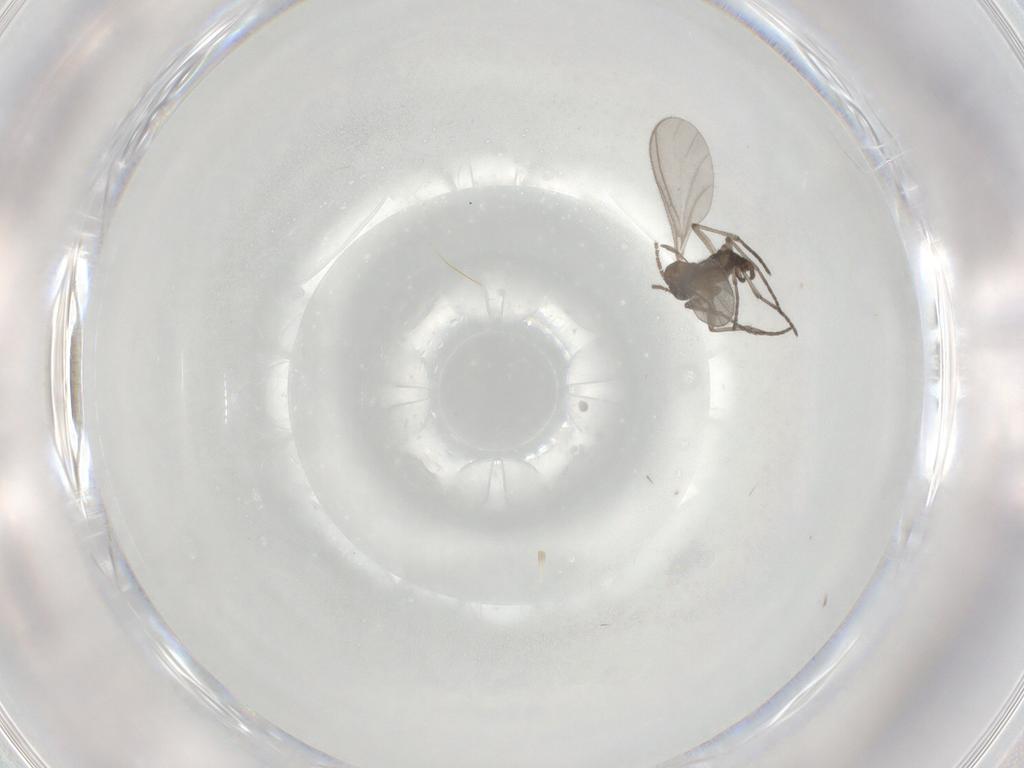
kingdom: Animalia
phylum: Arthropoda
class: Insecta
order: Diptera
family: Sciaridae
